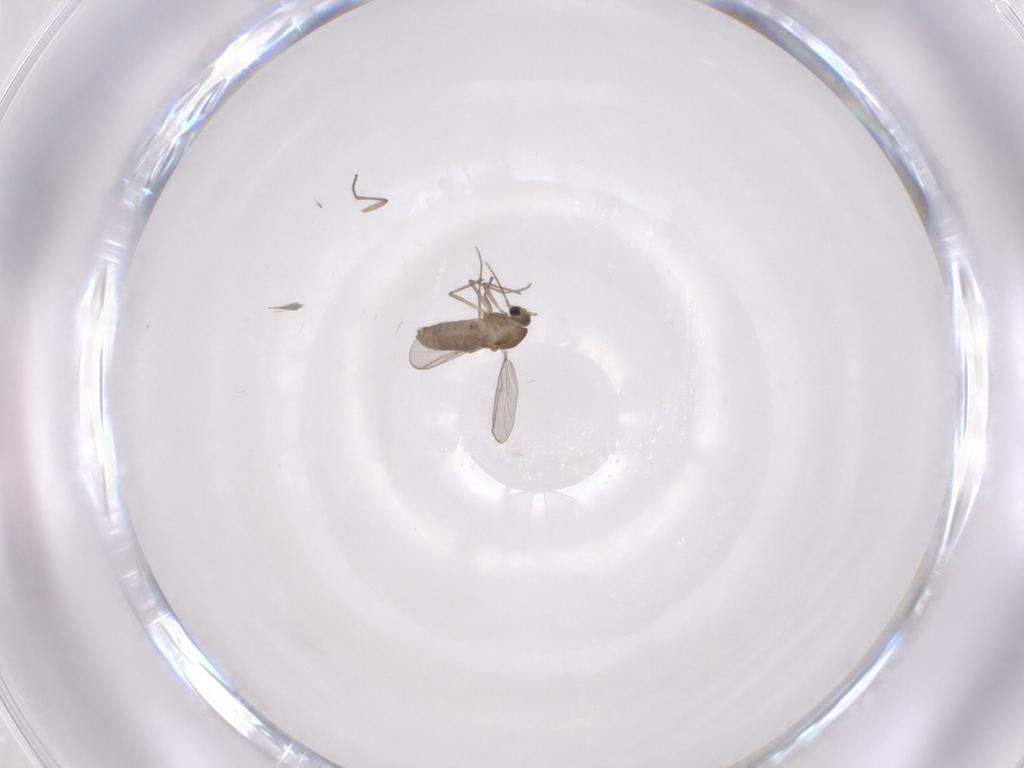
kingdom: Animalia
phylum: Arthropoda
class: Insecta
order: Diptera
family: Chironomidae
